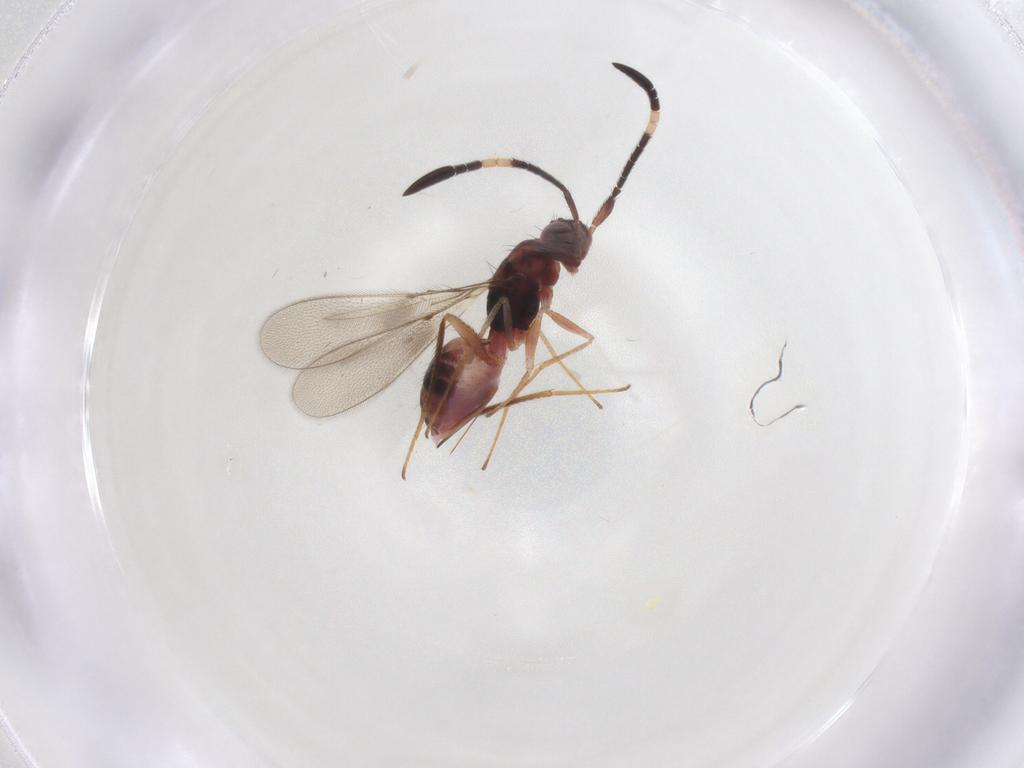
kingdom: Animalia
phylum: Arthropoda
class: Insecta
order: Hymenoptera
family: Mymaridae
